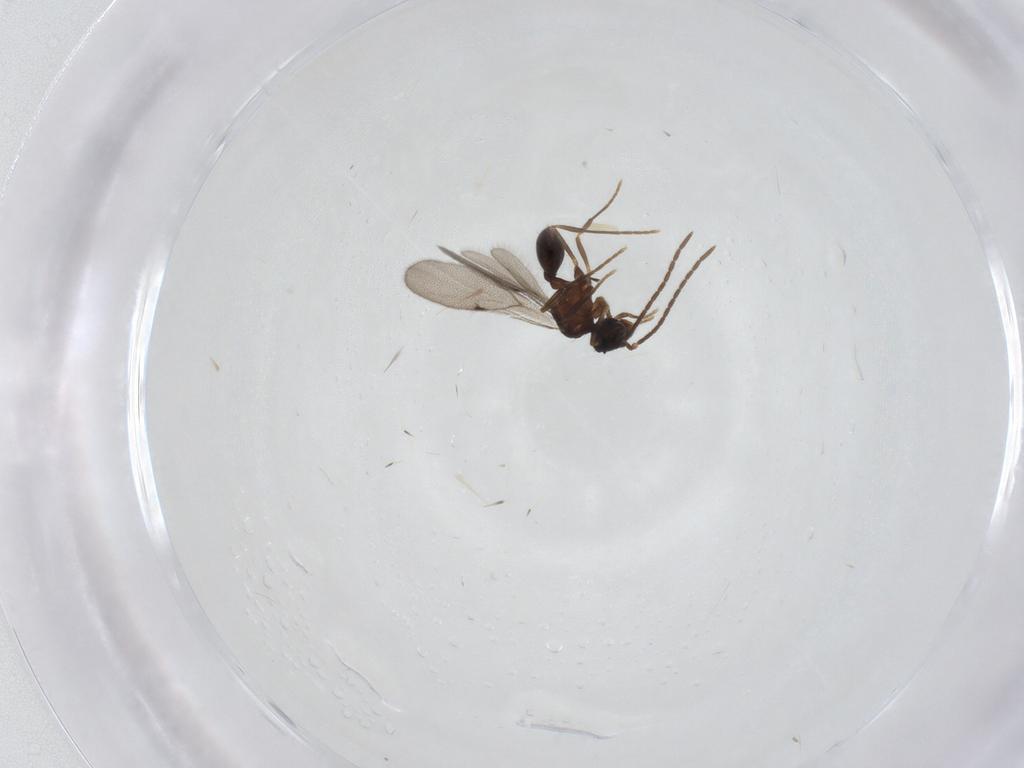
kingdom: Animalia
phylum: Arthropoda
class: Insecta
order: Hymenoptera
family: Formicidae
